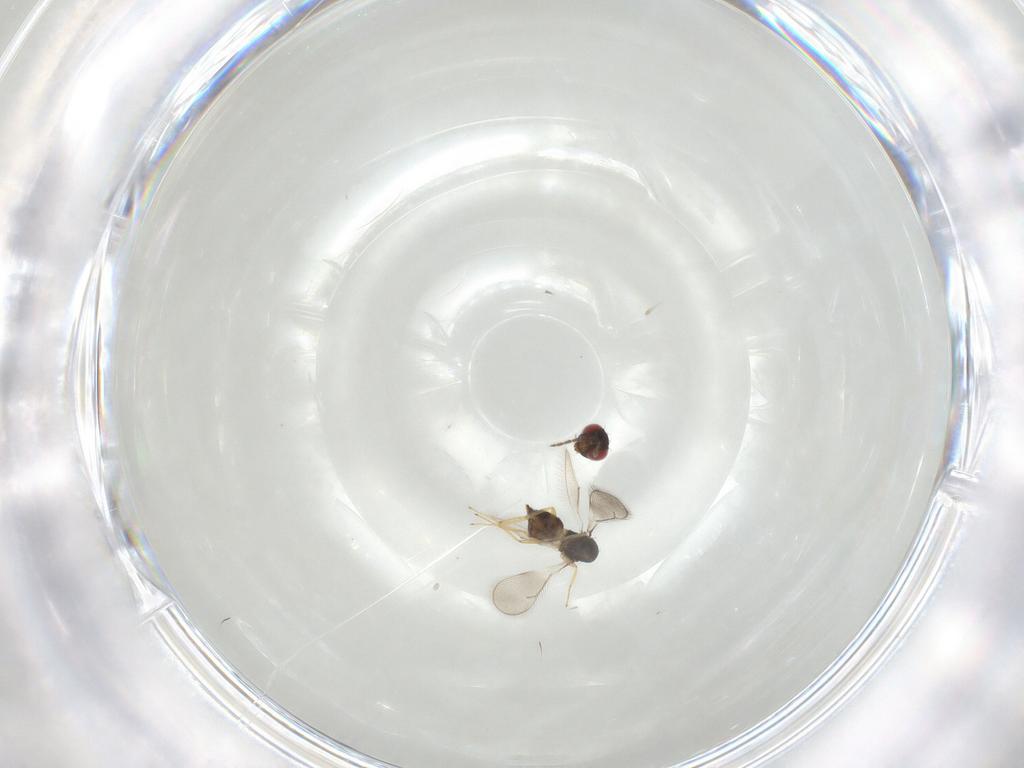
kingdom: Animalia
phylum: Arthropoda
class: Insecta
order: Hymenoptera
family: Eulophidae
